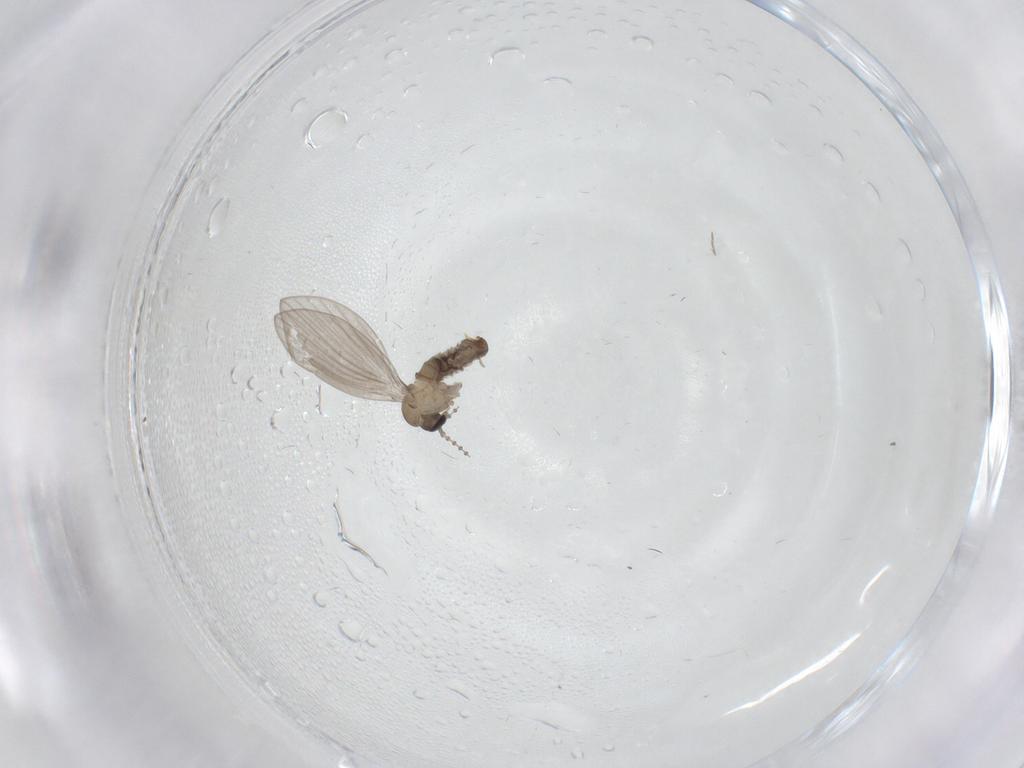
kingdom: Animalia
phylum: Arthropoda
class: Insecta
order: Diptera
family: Psychodidae
